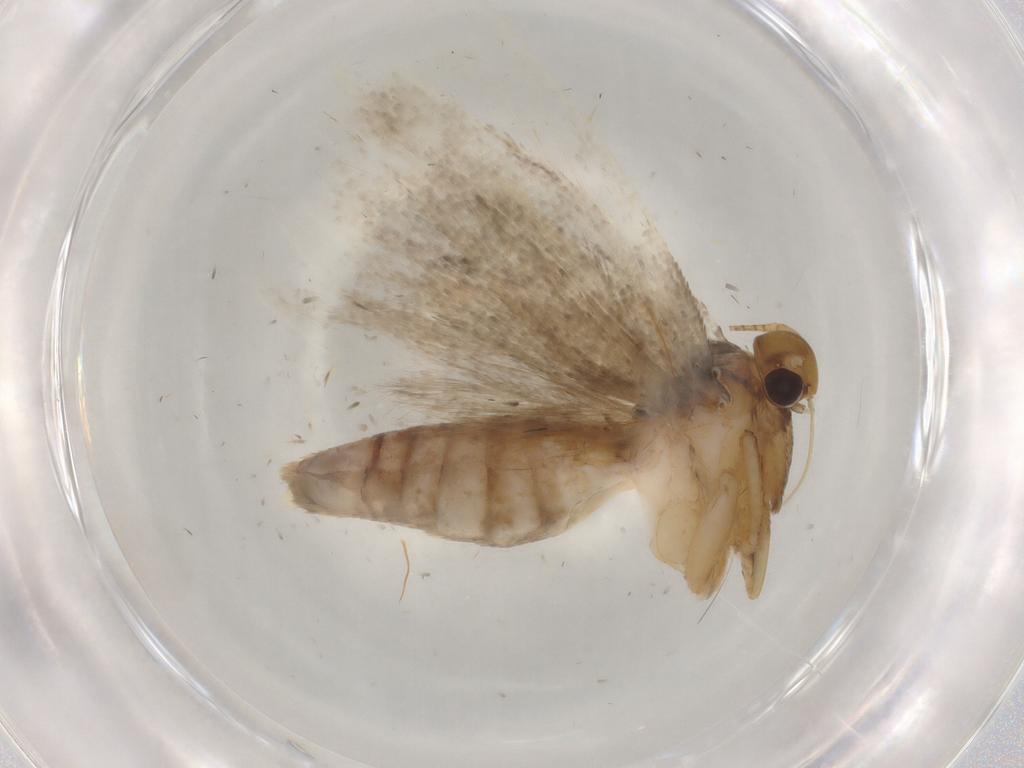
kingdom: Animalia
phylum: Arthropoda
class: Insecta
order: Lepidoptera
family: Gelechiidae
